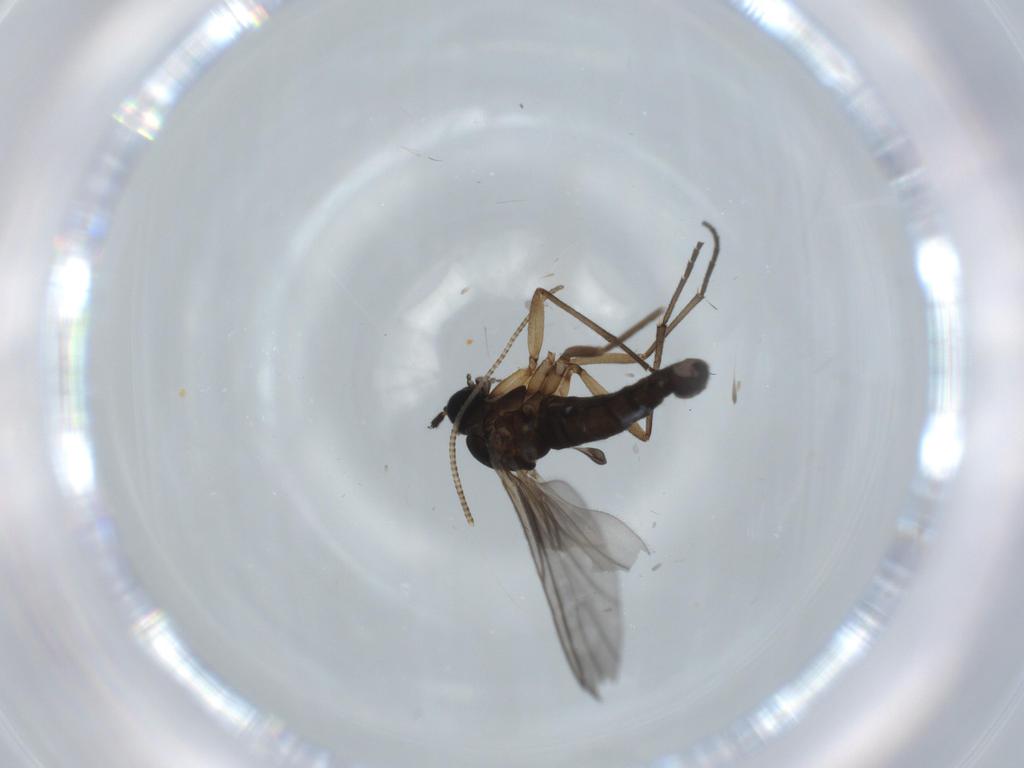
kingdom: Animalia
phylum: Arthropoda
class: Insecta
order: Diptera
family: Sciaridae
